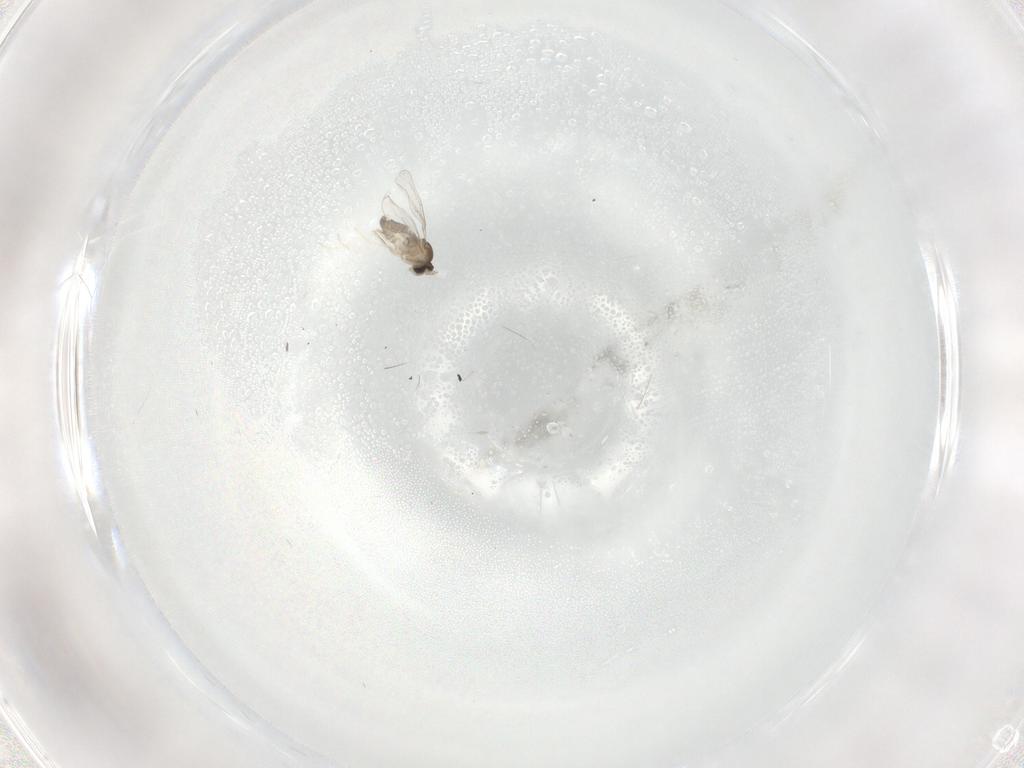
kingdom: Animalia
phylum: Arthropoda
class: Insecta
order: Diptera
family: Cecidomyiidae
